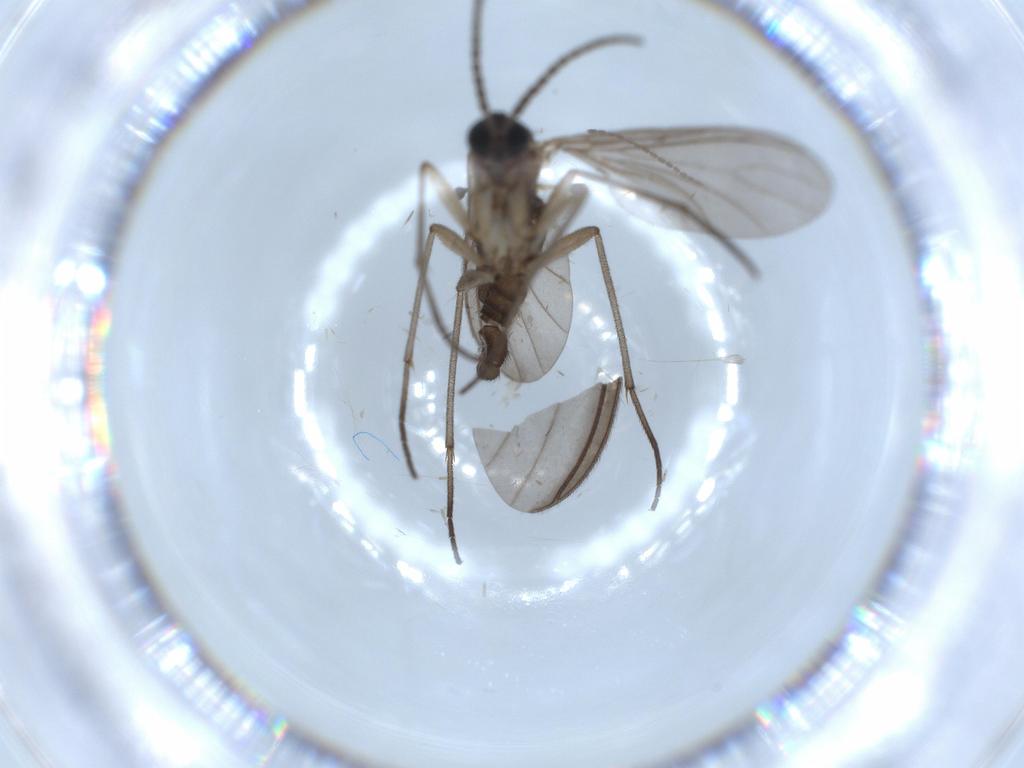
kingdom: Animalia
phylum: Arthropoda
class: Insecta
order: Diptera
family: Sciaridae
